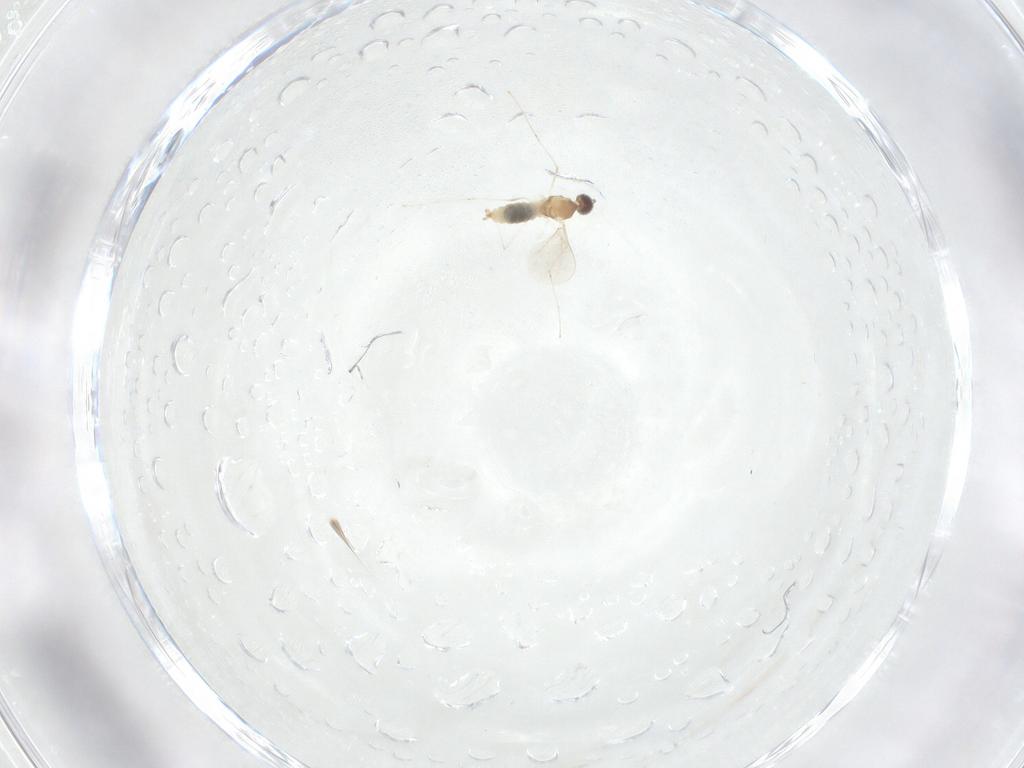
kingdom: Animalia
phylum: Arthropoda
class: Insecta
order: Diptera
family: Cecidomyiidae
